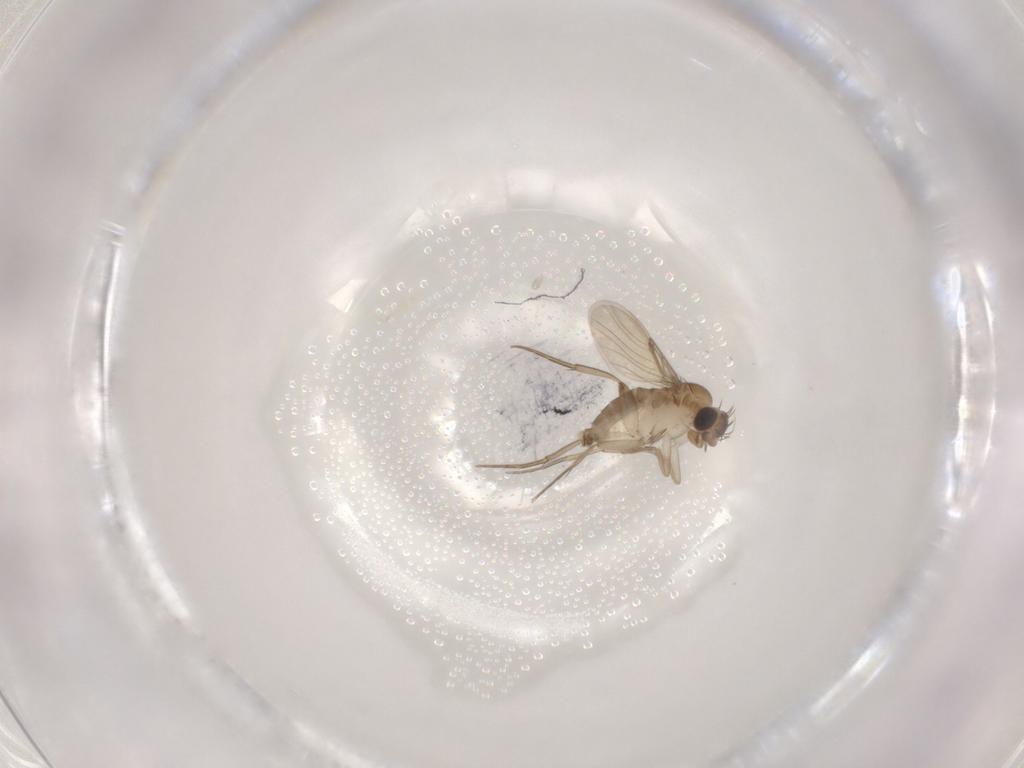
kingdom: Animalia
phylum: Arthropoda
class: Insecta
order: Diptera
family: Phoridae
